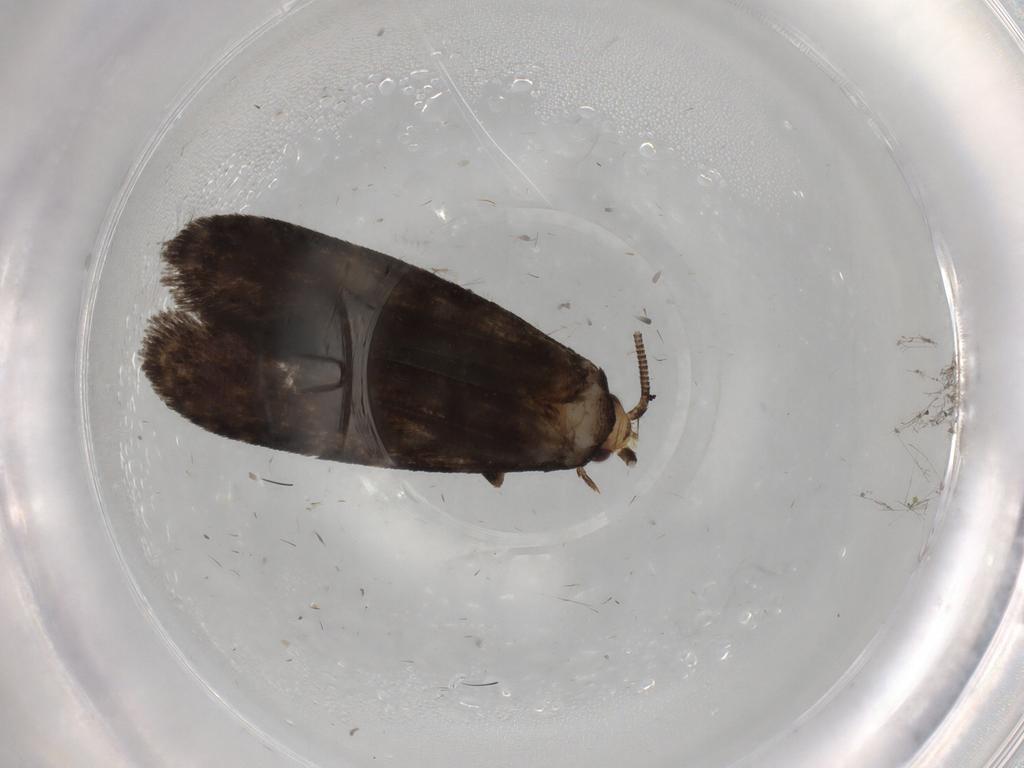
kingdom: Animalia
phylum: Arthropoda
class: Insecta
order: Lepidoptera
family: Tineidae
